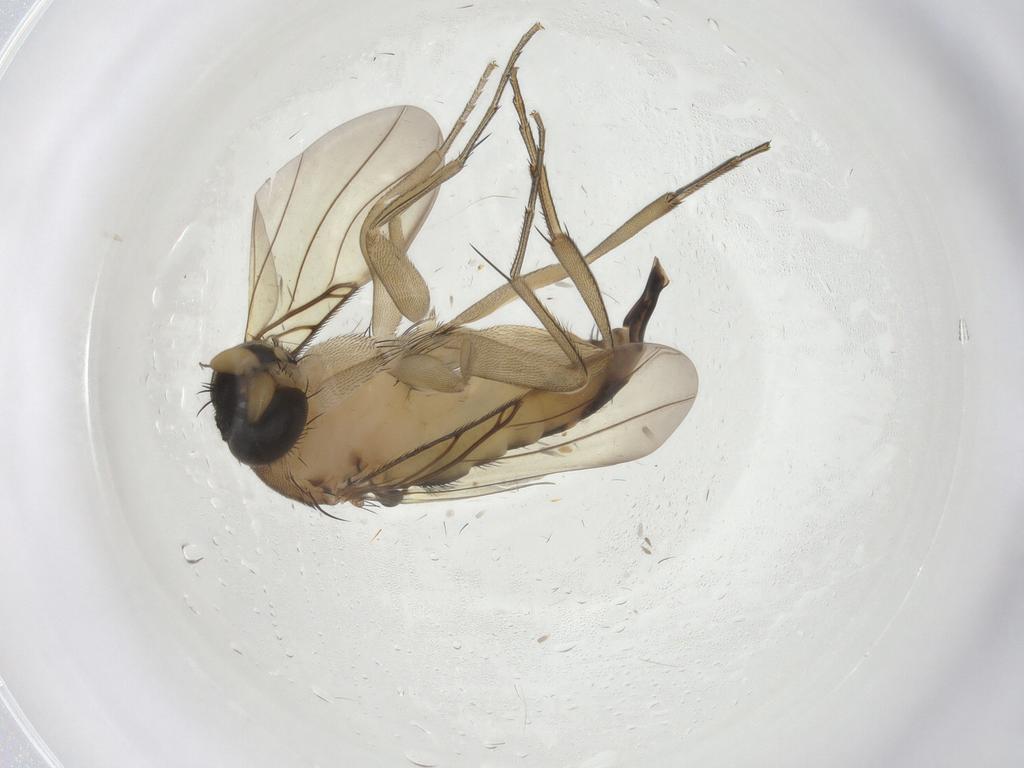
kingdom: Animalia
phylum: Arthropoda
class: Insecta
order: Diptera
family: Phoridae
